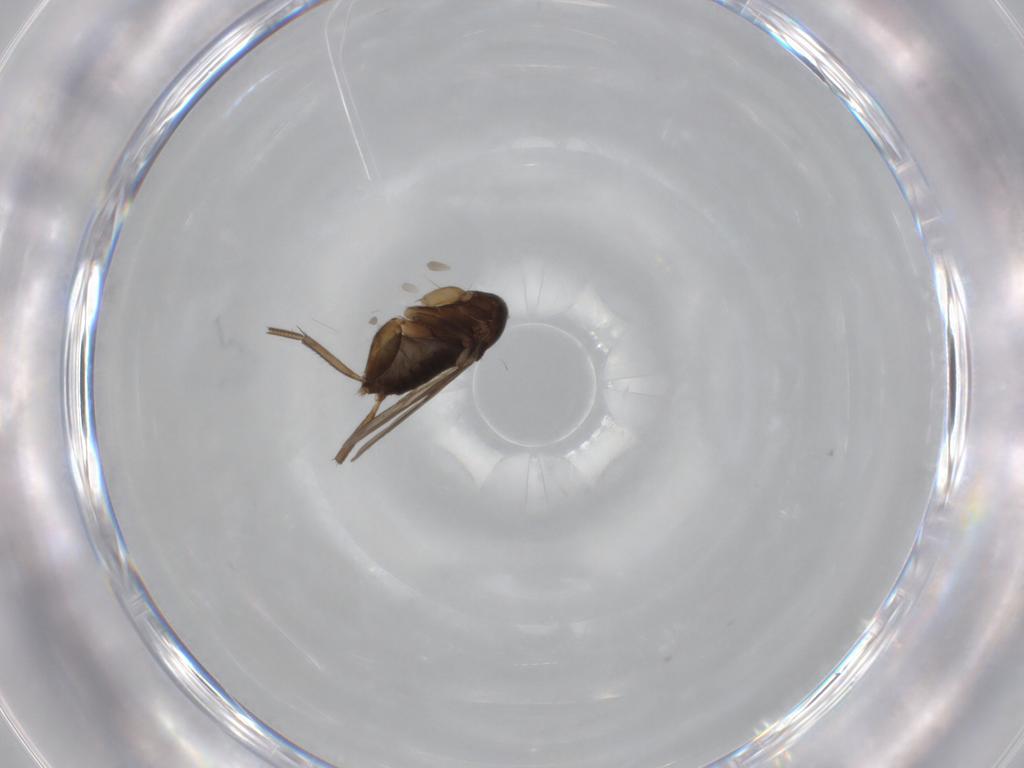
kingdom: Animalia
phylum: Arthropoda
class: Insecta
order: Diptera
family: Phoridae
